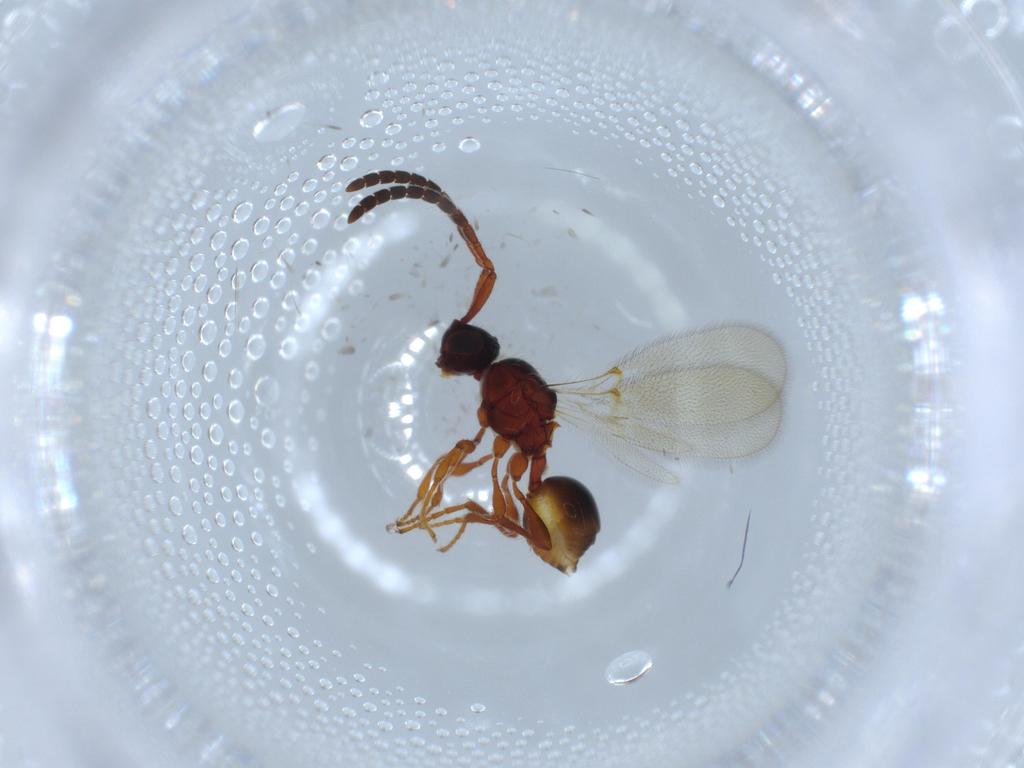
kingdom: Animalia
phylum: Arthropoda
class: Insecta
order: Hymenoptera
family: Diapriidae
